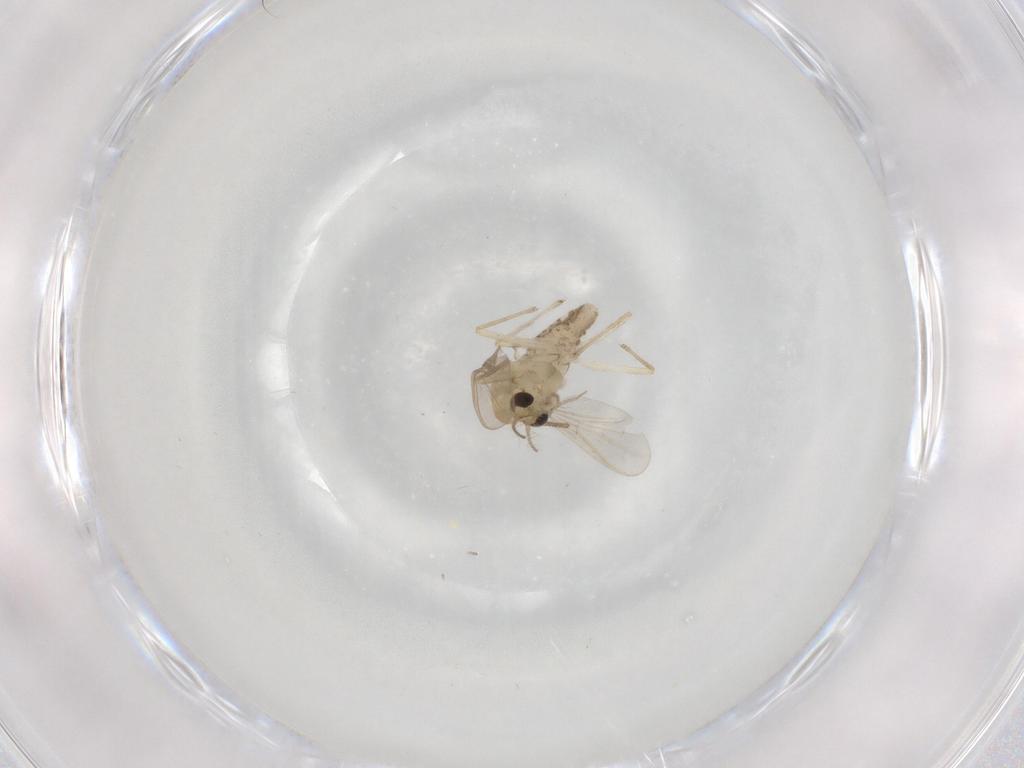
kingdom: Animalia
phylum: Arthropoda
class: Insecta
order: Diptera
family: Chironomidae
